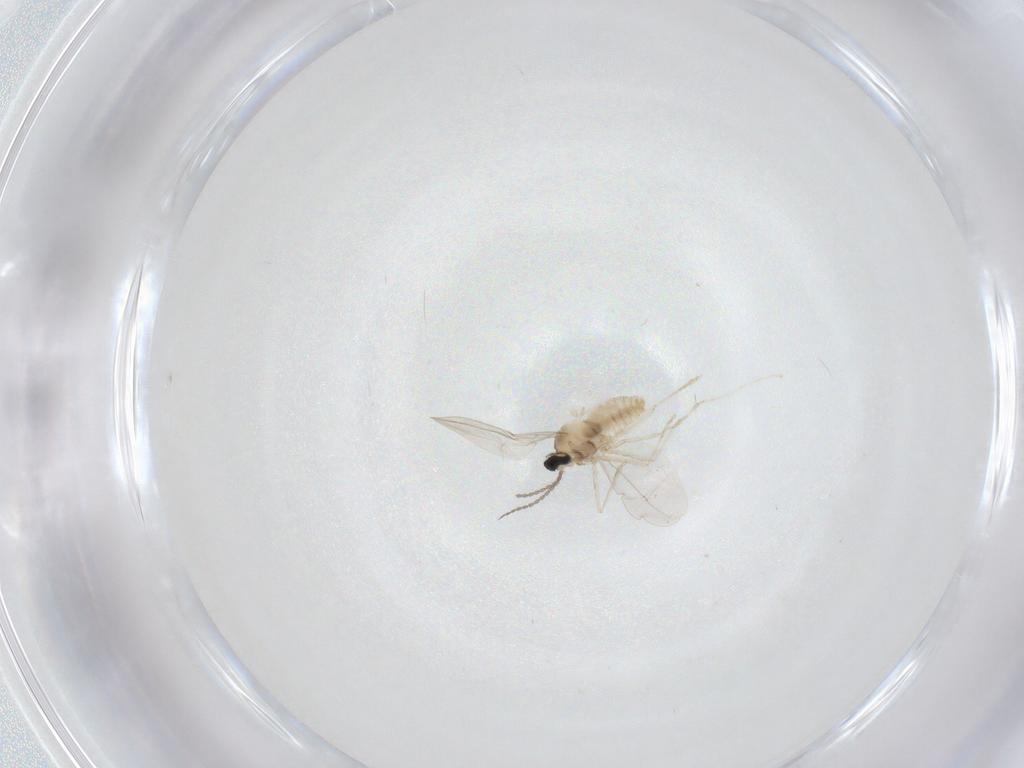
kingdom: Animalia
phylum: Arthropoda
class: Insecta
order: Diptera
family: Cecidomyiidae
